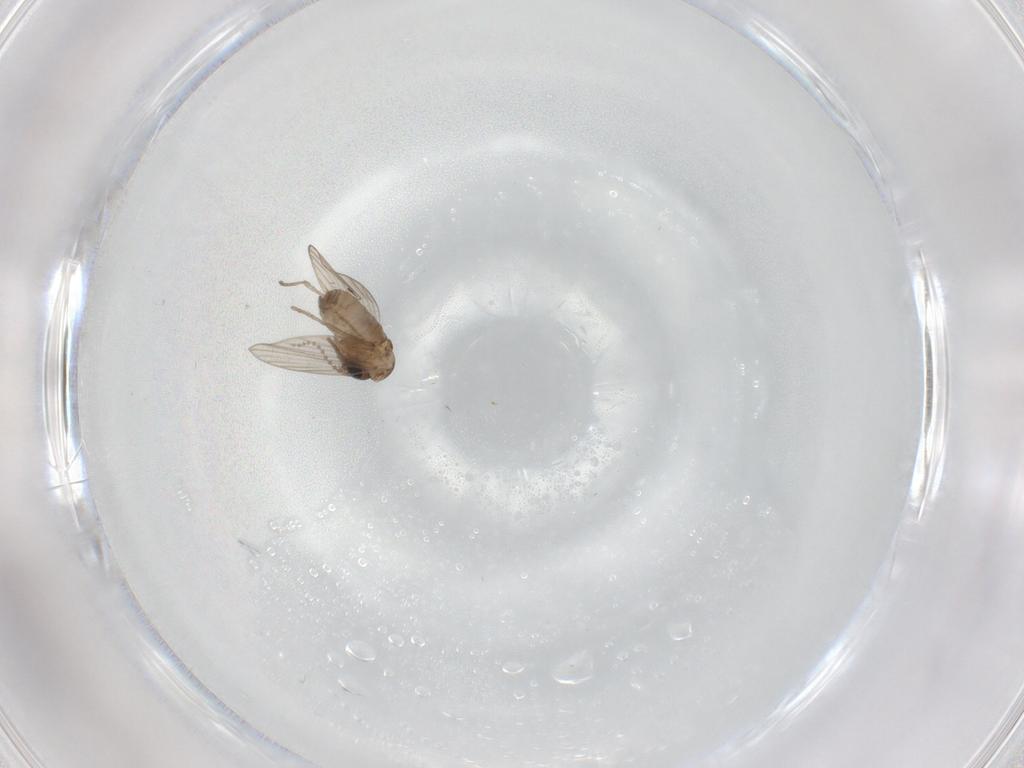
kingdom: Animalia
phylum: Arthropoda
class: Insecta
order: Diptera
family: Psychodidae
